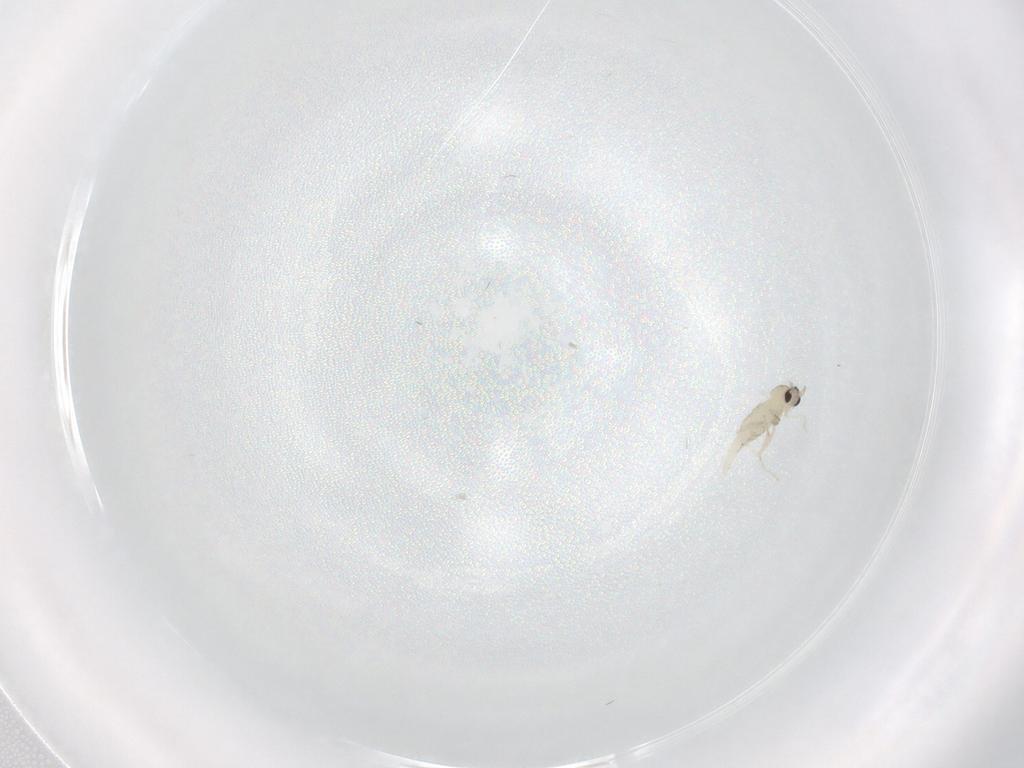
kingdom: Animalia
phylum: Arthropoda
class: Insecta
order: Diptera
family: Cecidomyiidae
